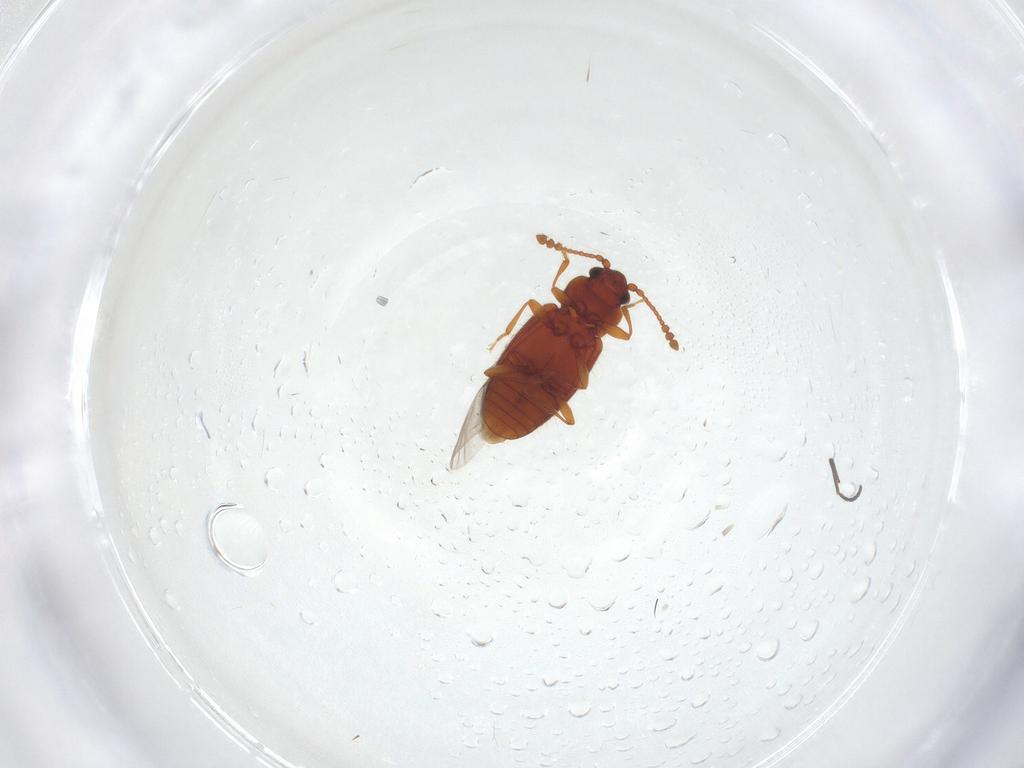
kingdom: Animalia
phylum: Arthropoda
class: Insecta
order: Coleoptera
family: Cryptophagidae
